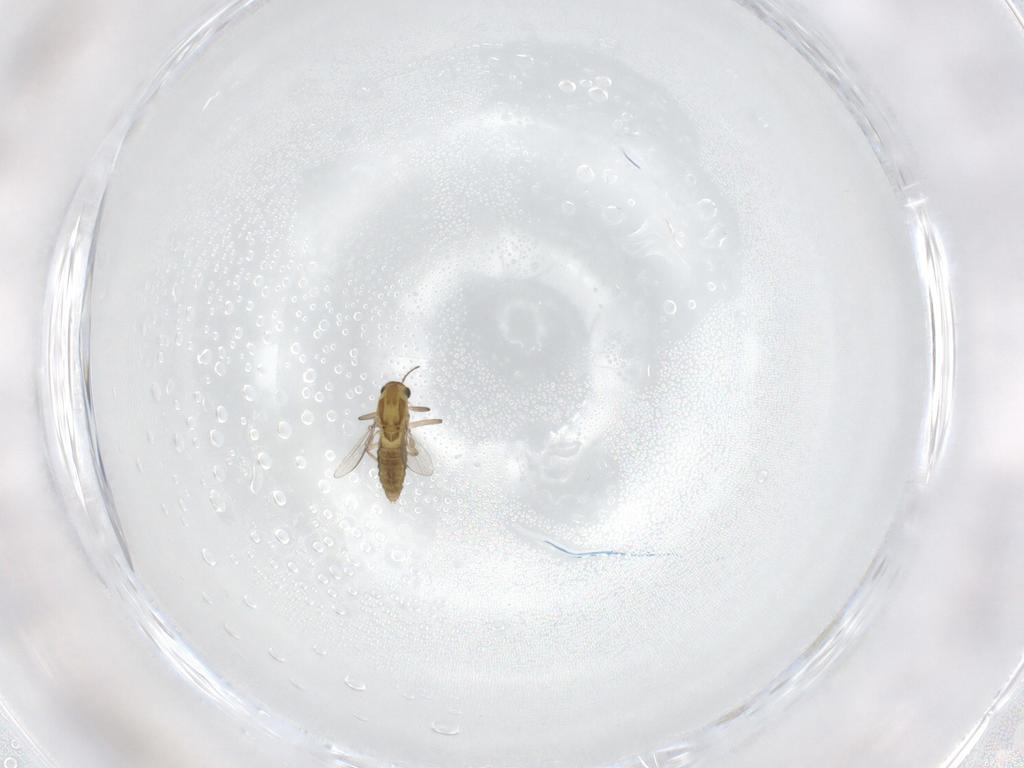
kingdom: Animalia
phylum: Arthropoda
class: Insecta
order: Diptera
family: Chironomidae
